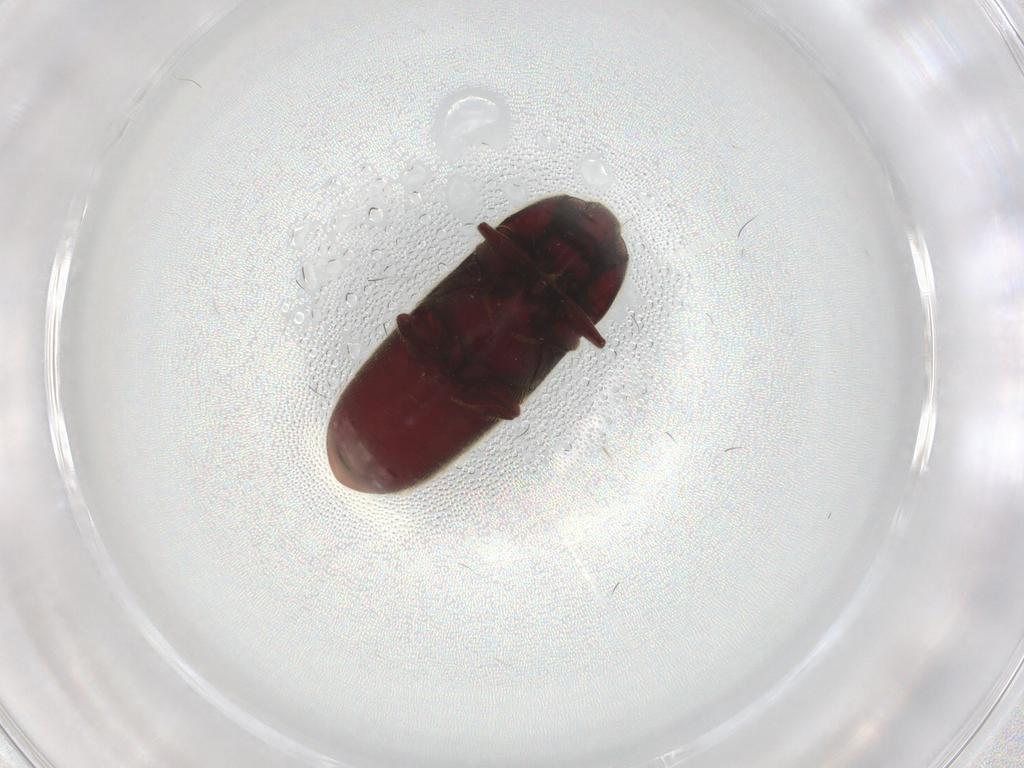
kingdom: Animalia
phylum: Arthropoda
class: Insecta
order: Coleoptera
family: Throscidae
